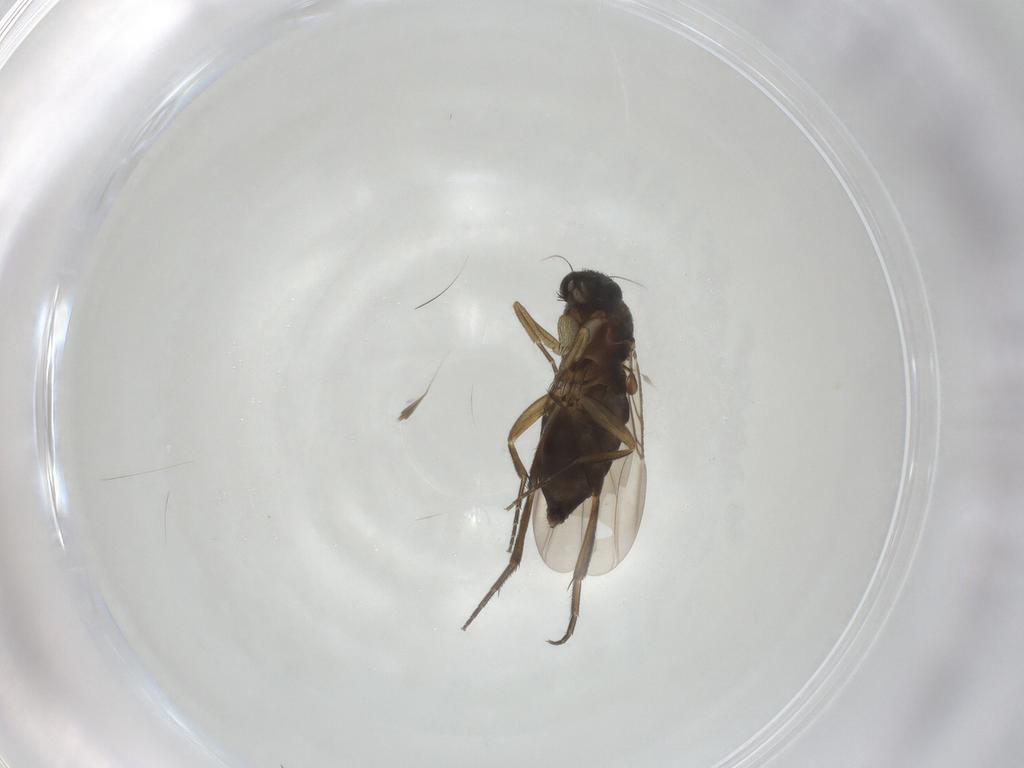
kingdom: Animalia
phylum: Arthropoda
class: Insecta
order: Diptera
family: Phoridae
